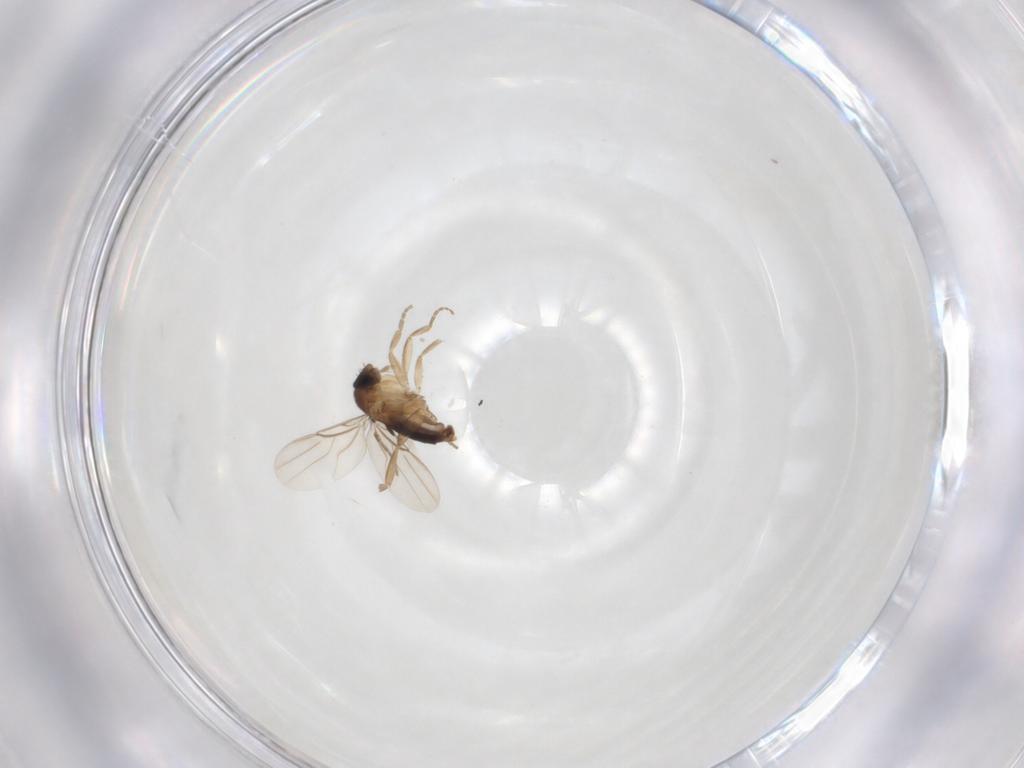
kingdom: Animalia
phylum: Arthropoda
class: Insecta
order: Diptera
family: Phoridae
